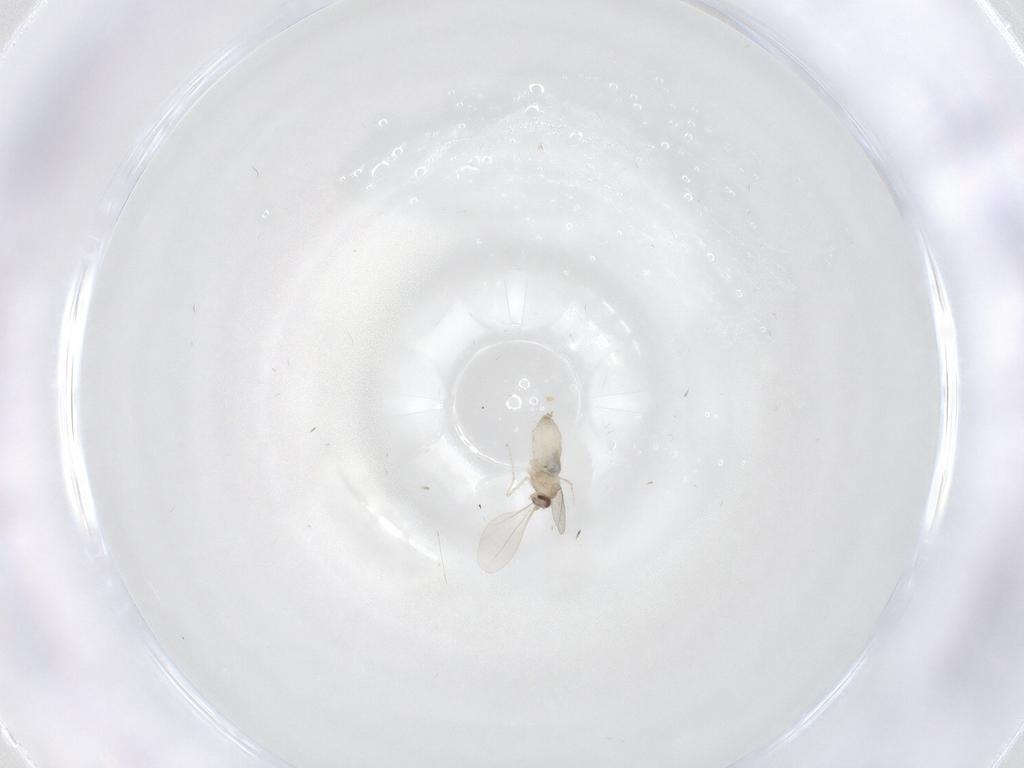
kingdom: Animalia
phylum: Arthropoda
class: Insecta
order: Diptera
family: Cecidomyiidae
